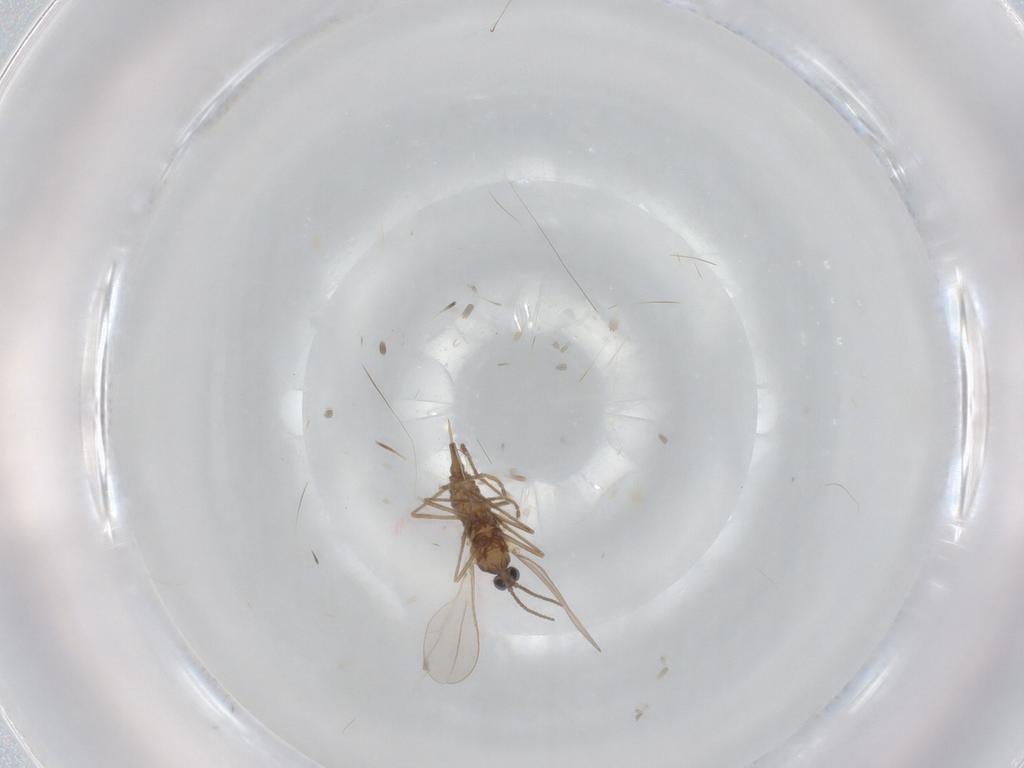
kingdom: Animalia
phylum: Arthropoda
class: Insecta
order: Diptera
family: Cecidomyiidae
